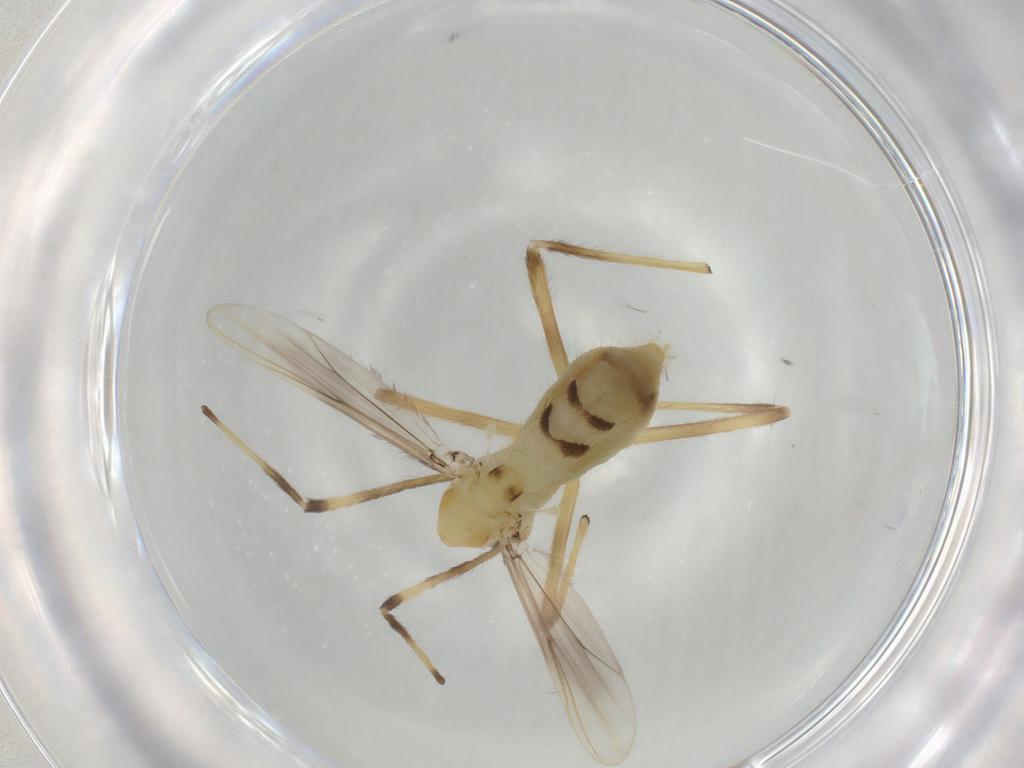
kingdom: Animalia
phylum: Arthropoda
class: Insecta
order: Diptera
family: Chironomidae
